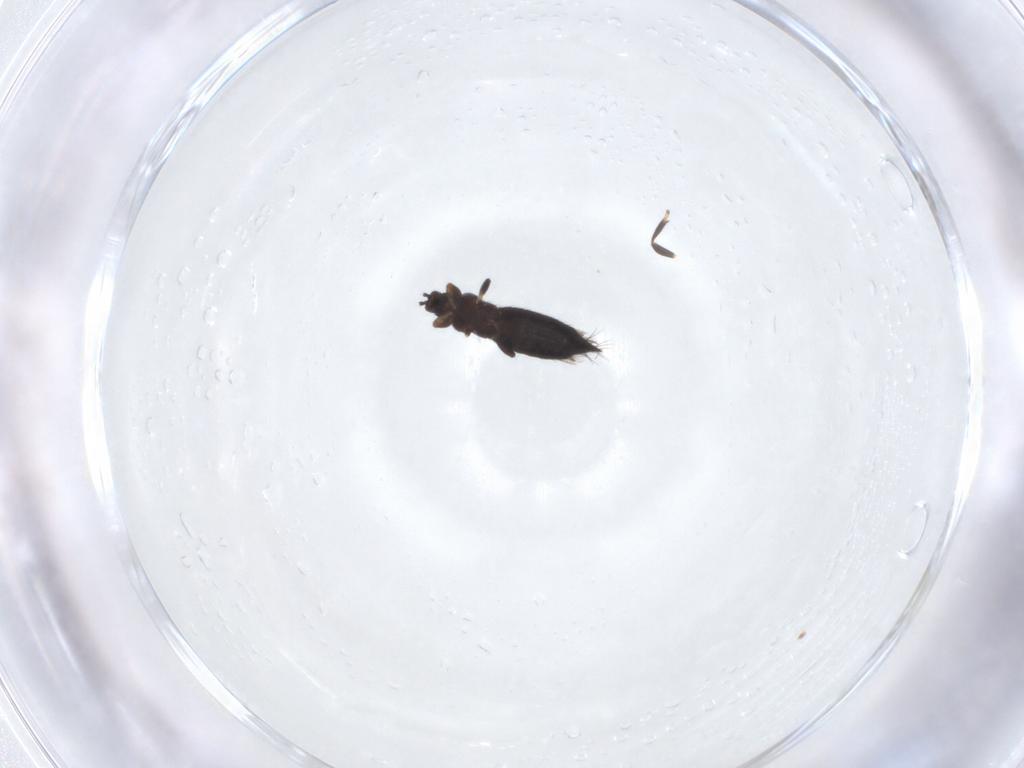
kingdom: Animalia
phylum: Arthropoda
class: Insecta
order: Thysanoptera
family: Thripidae
